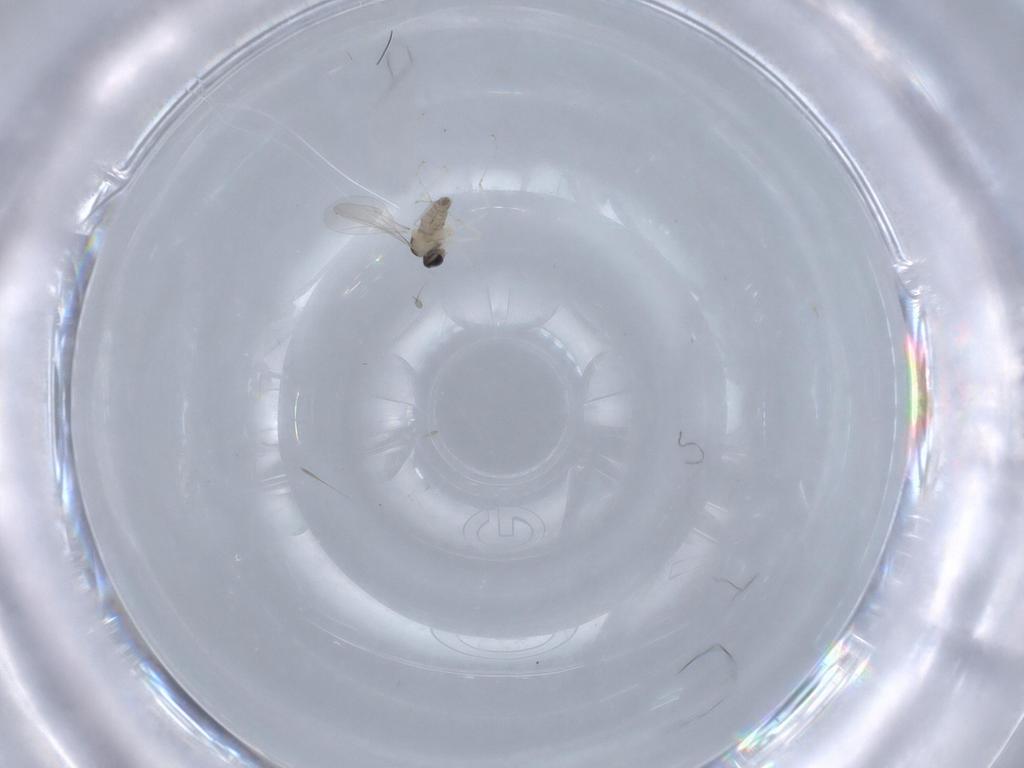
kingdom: Animalia
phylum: Arthropoda
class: Insecta
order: Diptera
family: Cecidomyiidae
